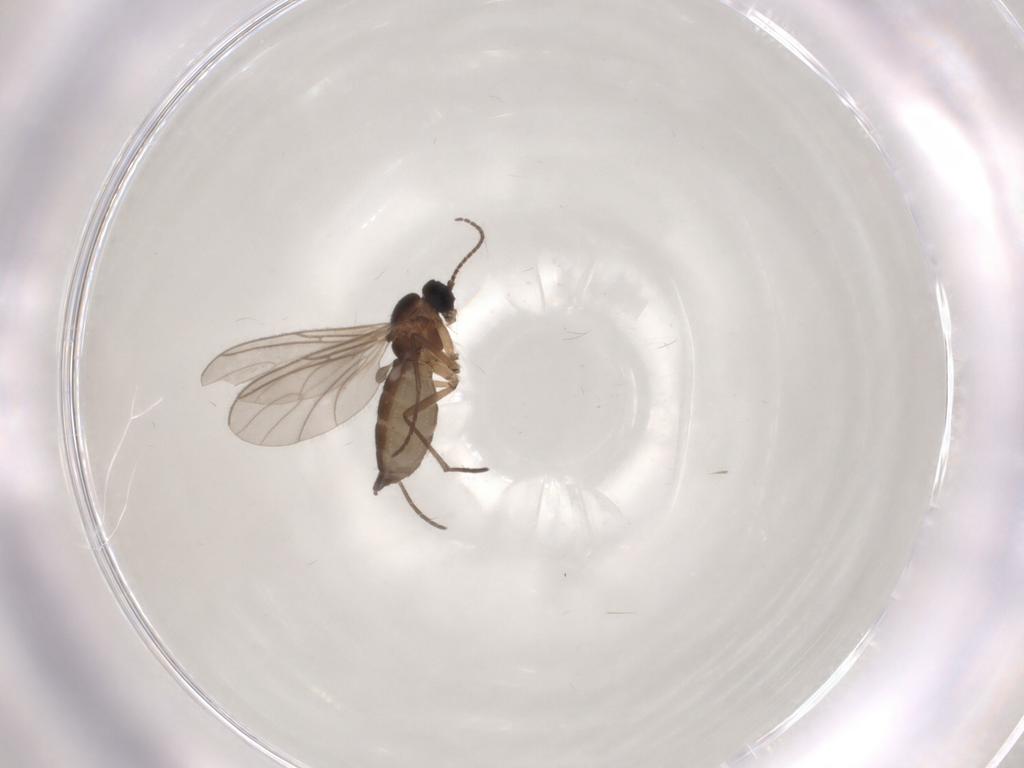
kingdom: Animalia
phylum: Arthropoda
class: Insecta
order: Diptera
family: Sciaridae
